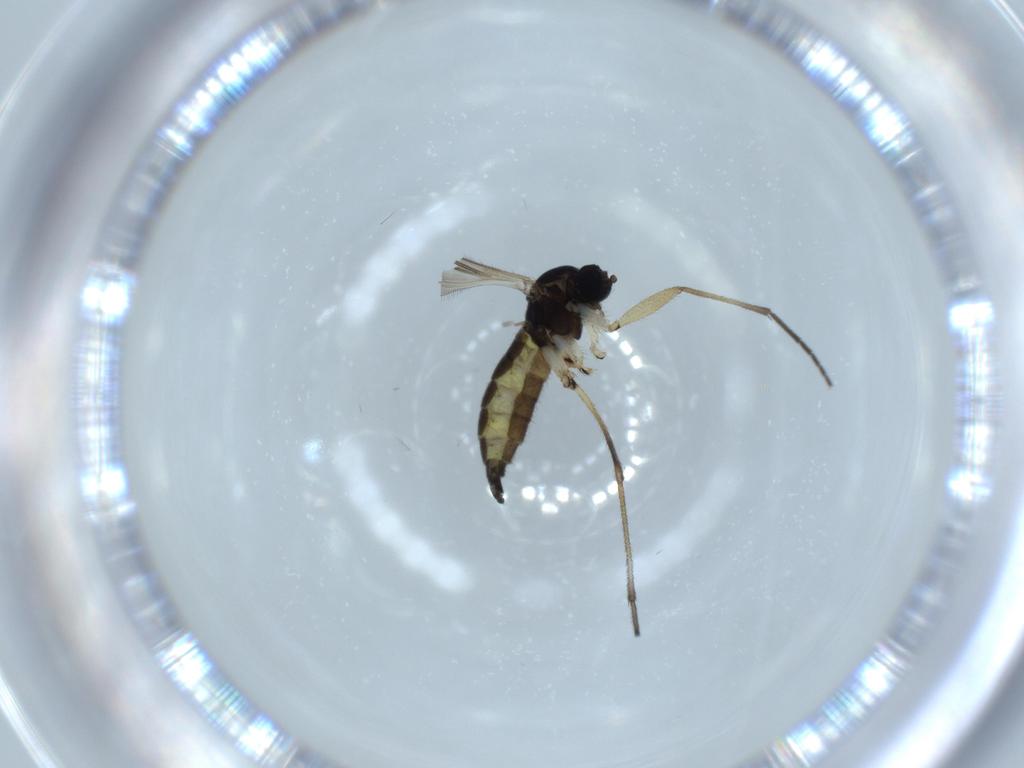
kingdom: Animalia
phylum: Arthropoda
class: Insecta
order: Diptera
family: Sciaridae
